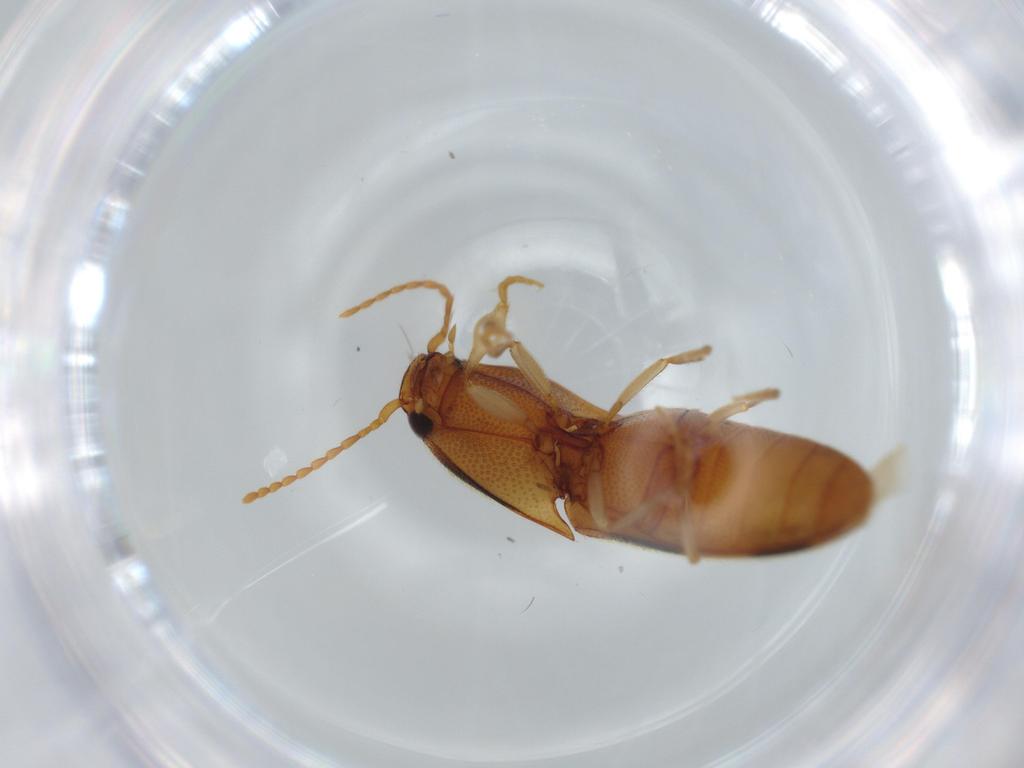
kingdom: Animalia
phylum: Arthropoda
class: Insecta
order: Coleoptera
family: Elateridae
